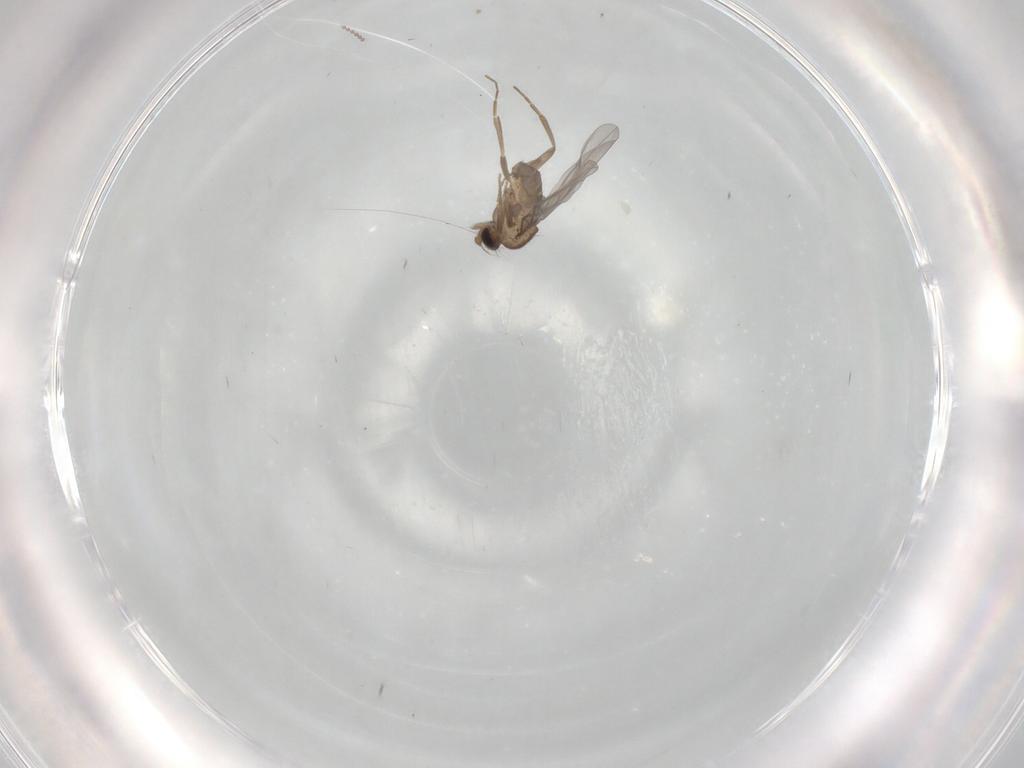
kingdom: Animalia
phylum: Arthropoda
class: Insecta
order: Diptera
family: Cecidomyiidae
